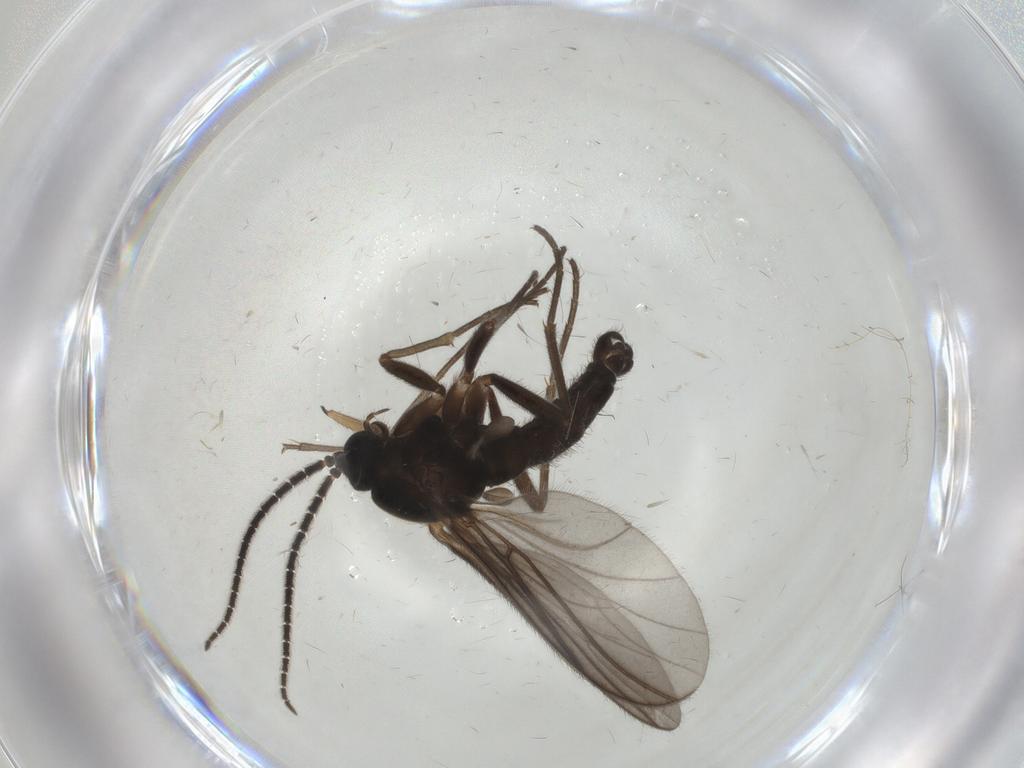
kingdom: Animalia
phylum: Arthropoda
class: Insecta
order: Diptera
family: Sciaridae
